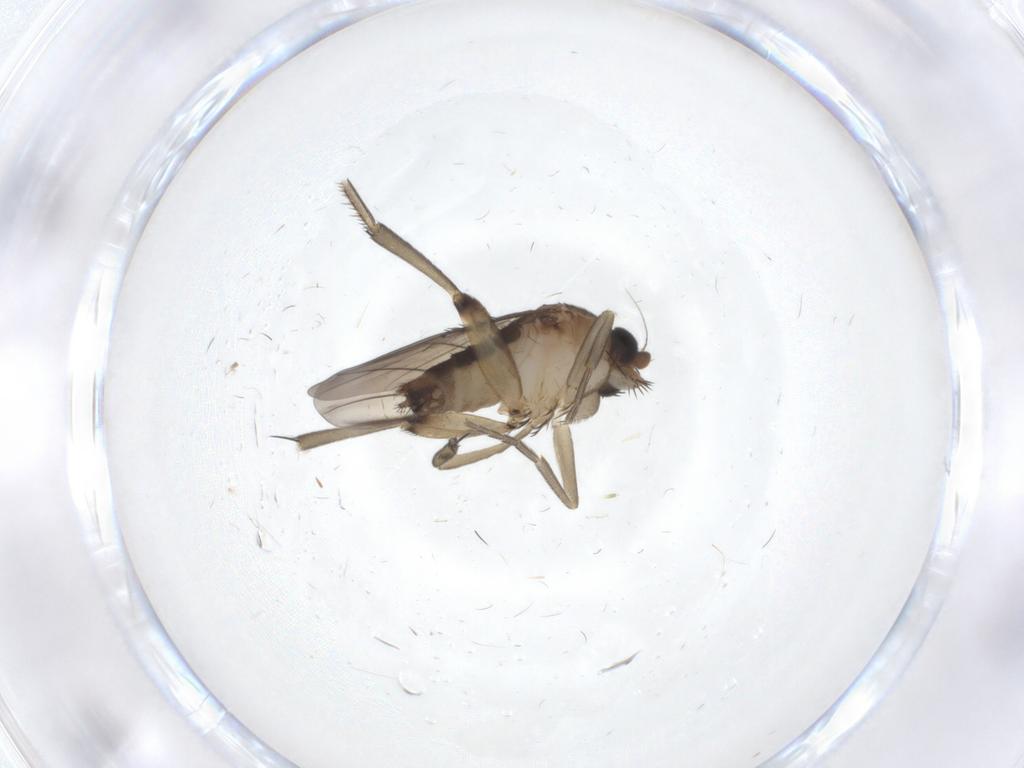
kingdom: Animalia
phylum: Arthropoda
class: Insecta
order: Diptera
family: Phoridae
